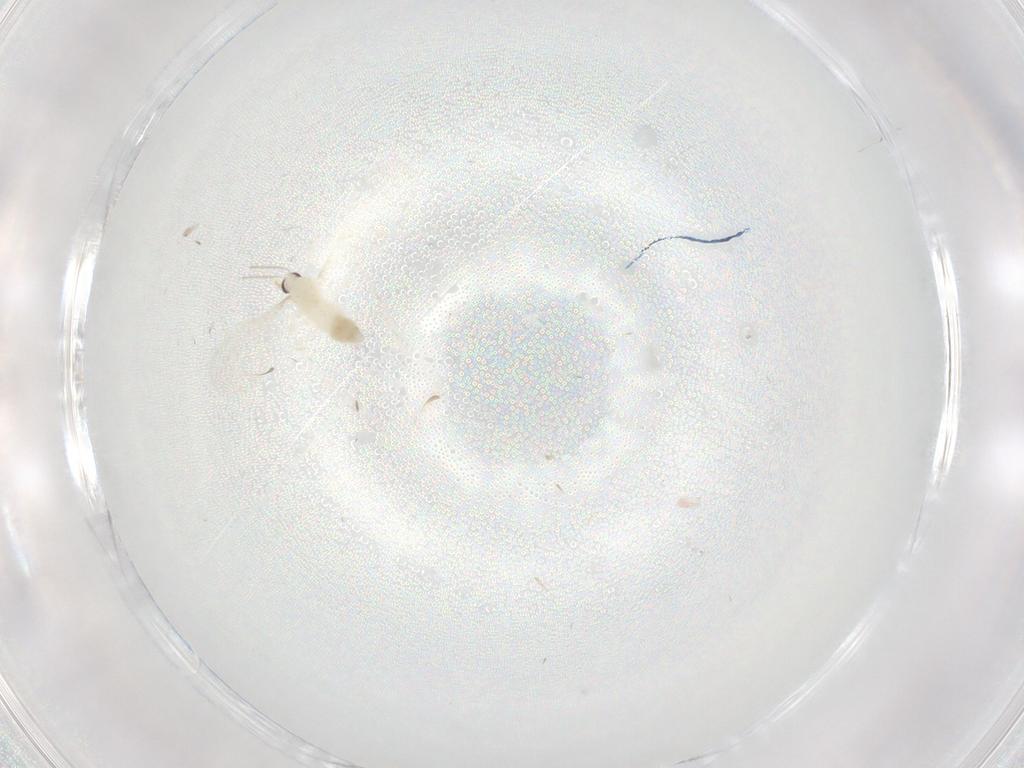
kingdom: Animalia
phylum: Arthropoda
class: Insecta
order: Diptera
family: Cecidomyiidae
